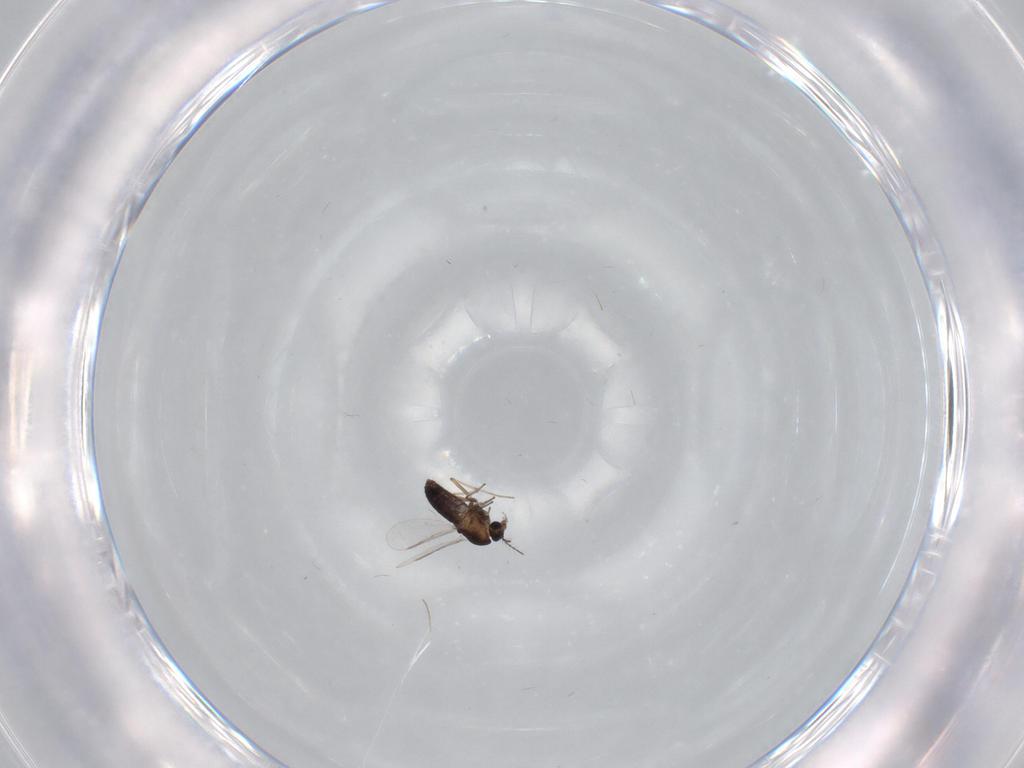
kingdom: Animalia
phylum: Arthropoda
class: Insecta
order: Diptera
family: Chironomidae
